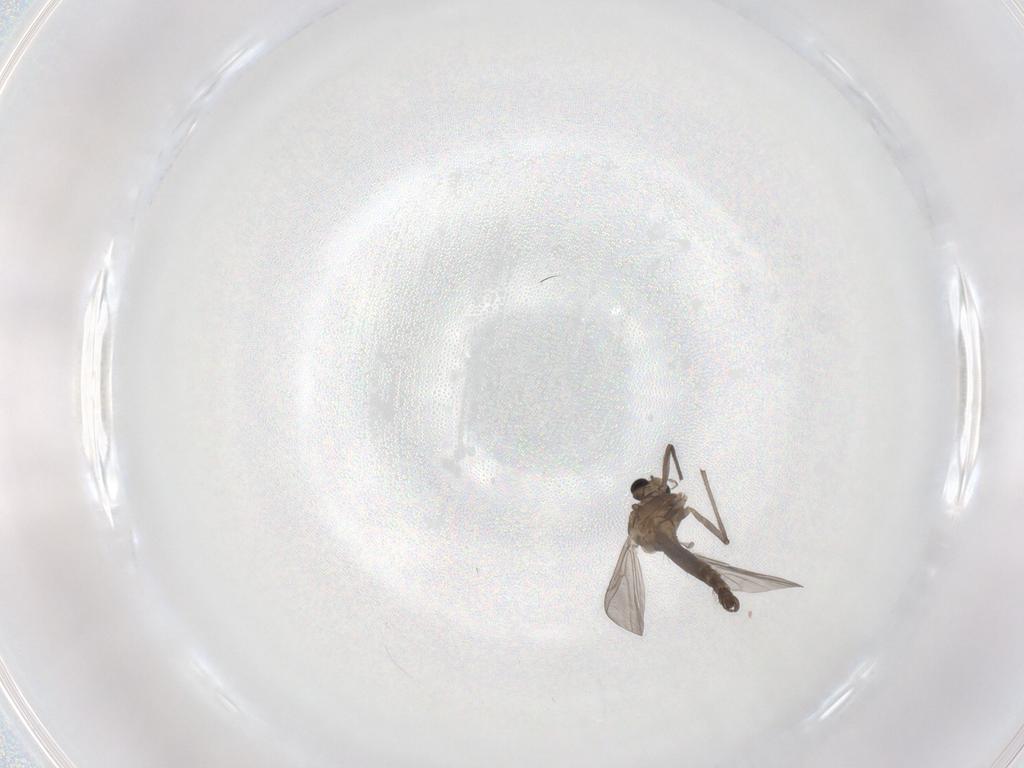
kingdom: Animalia
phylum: Arthropoda
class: Insecta
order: Diptera
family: Chironomidae
